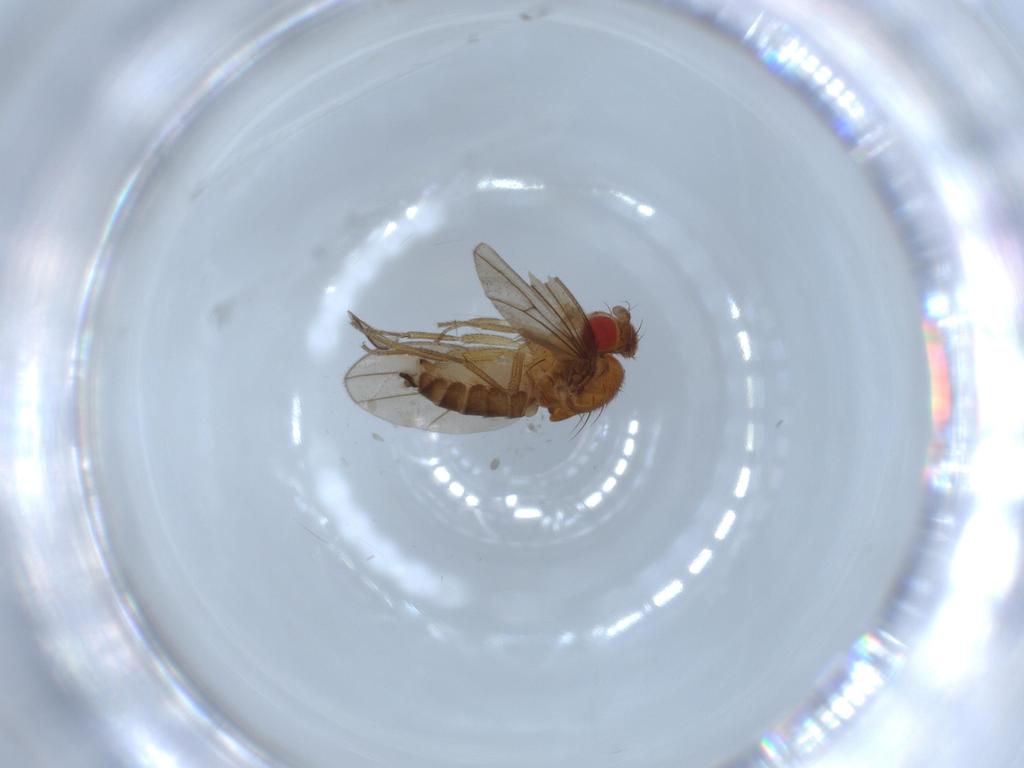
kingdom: Animalia
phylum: Arthropoda
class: Insecta
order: Diptera
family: Drosophilidae
